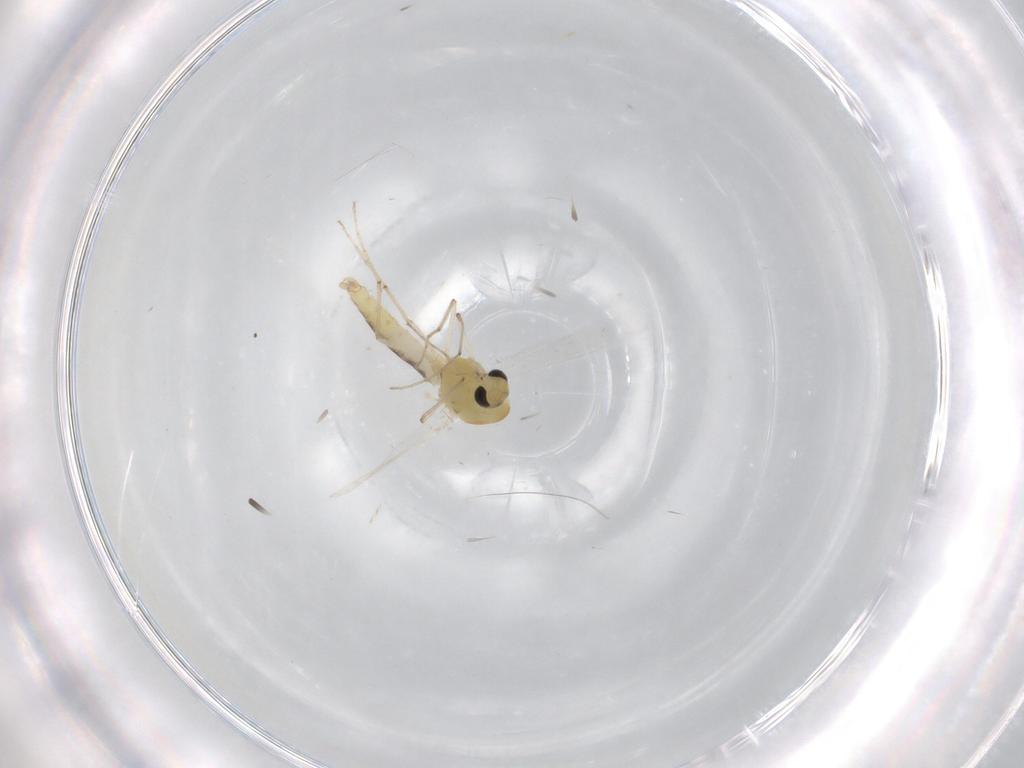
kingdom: Animalia
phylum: Arthropoda
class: Insecta
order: Diptera
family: Chironomidae
